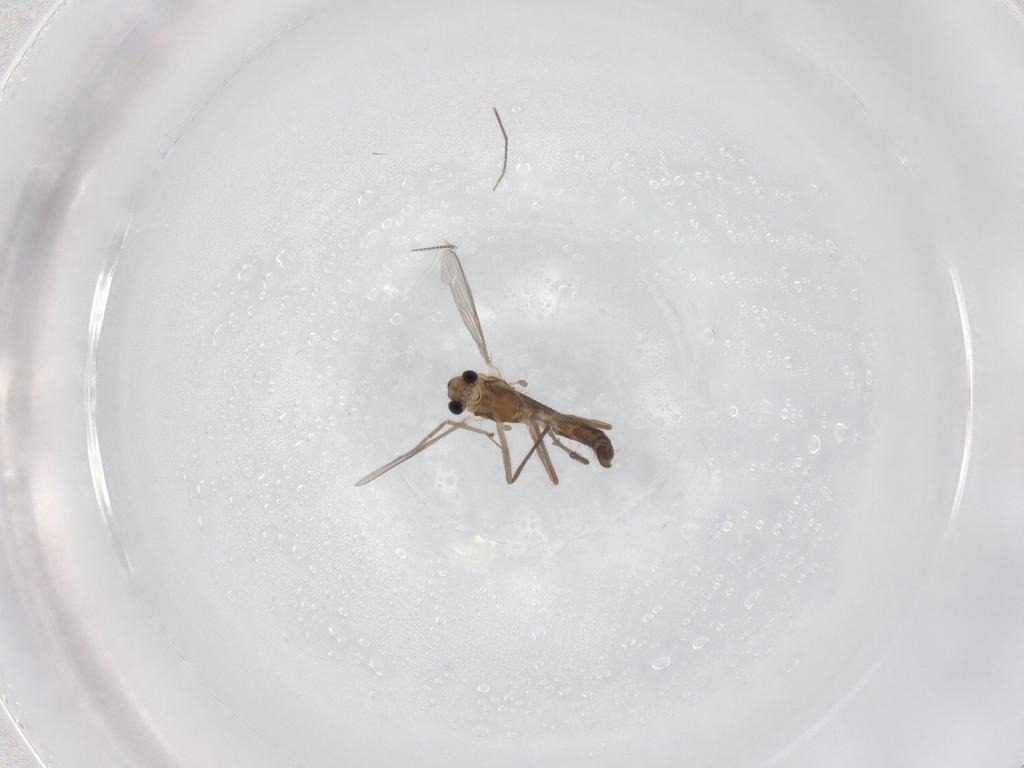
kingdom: Animalia
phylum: Arthropoda
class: Insecta
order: Diptera
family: Chironomidae
